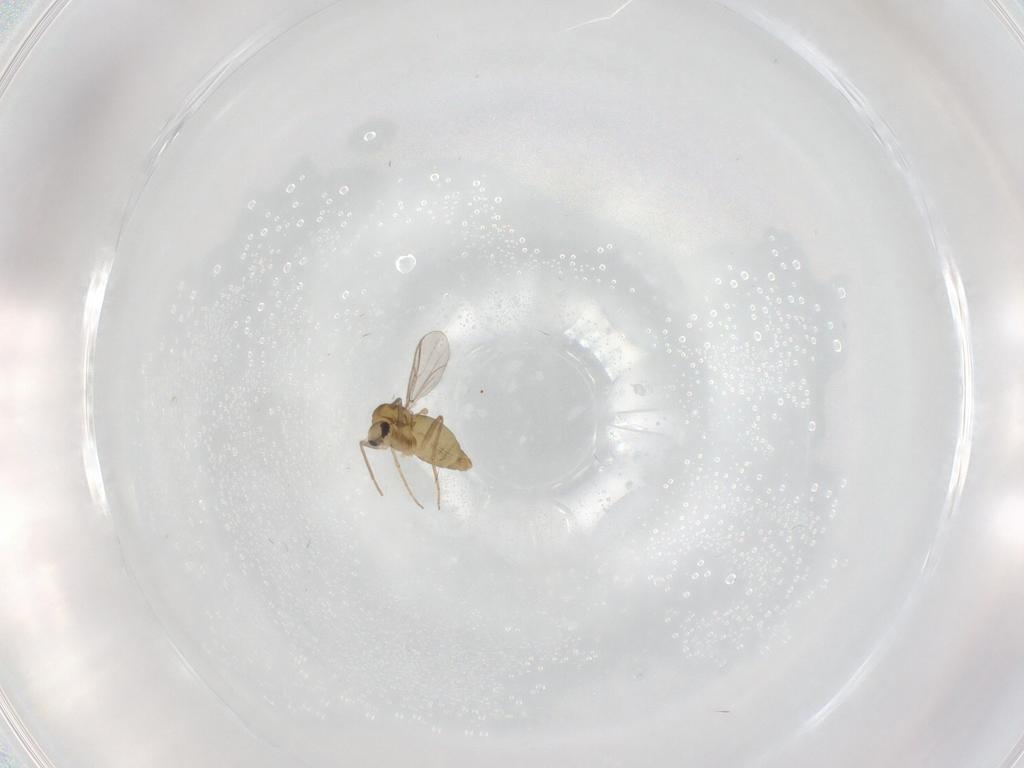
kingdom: Animalia
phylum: Arthropoda
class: Insecta
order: Diptera
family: Chironomidae
